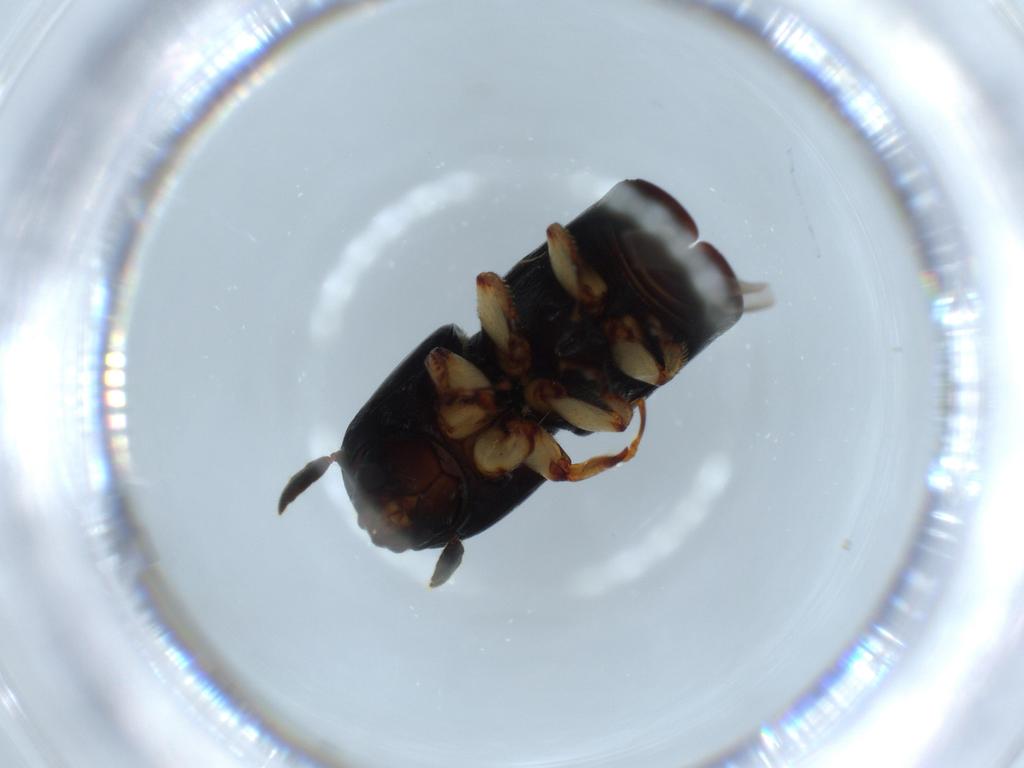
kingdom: Animalia
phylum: Arthropoda
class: Insecta
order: Coleoptera
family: Curculionidae
